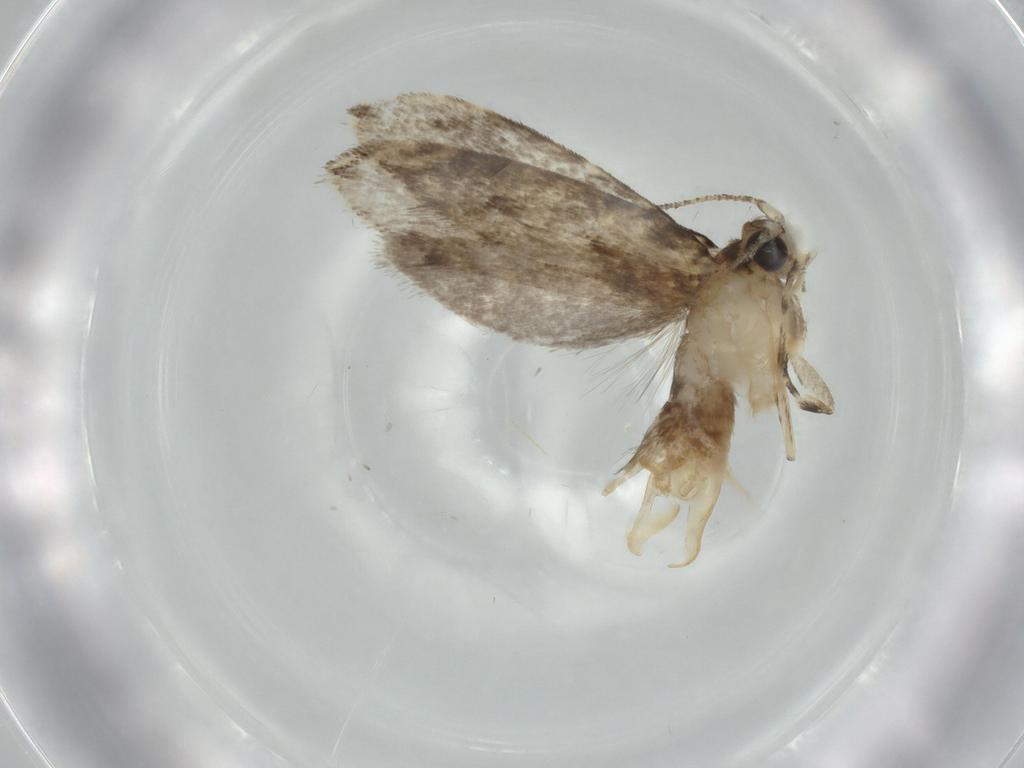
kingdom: Animalia
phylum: Arthropoda
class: Insecta
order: Lepidoptera
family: Tineidae
